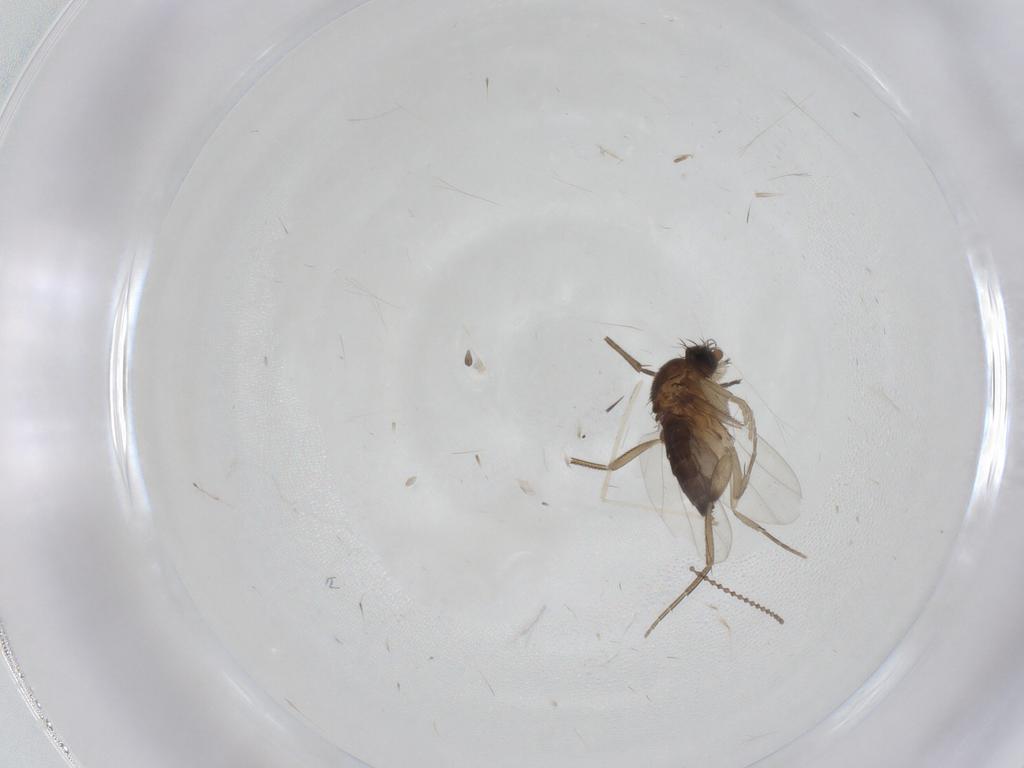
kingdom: Animalia
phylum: Arthropoda
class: Insecta
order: Diptera
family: Phoridae
